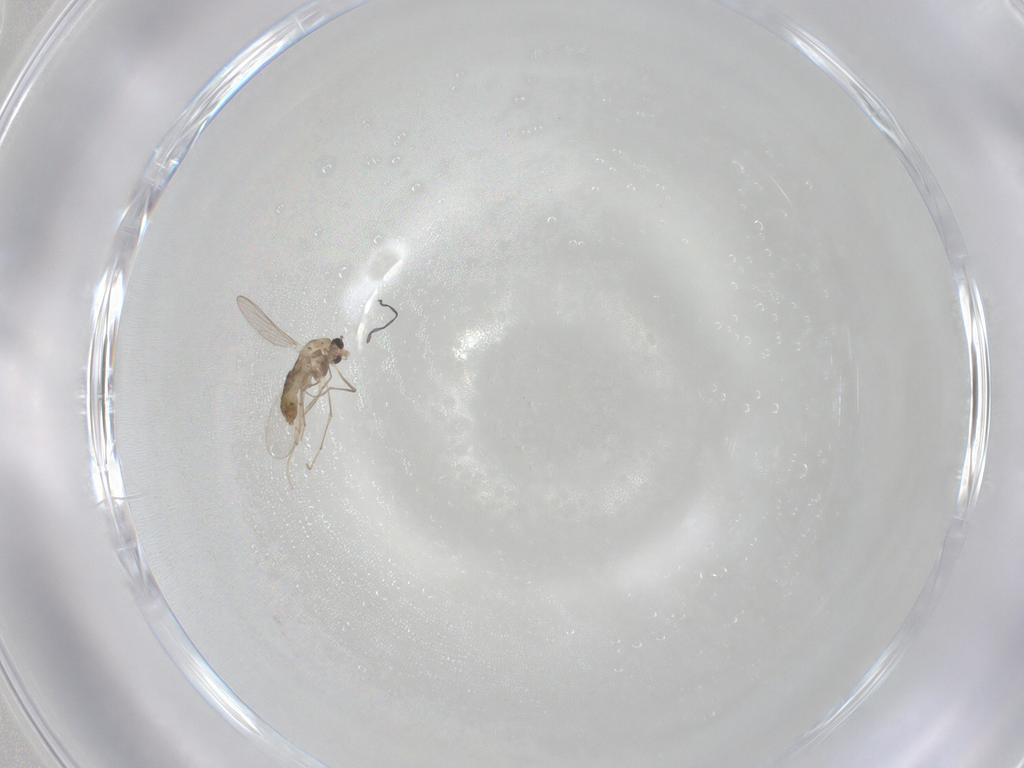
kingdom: Animalia
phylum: Arthropoda
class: Insecta
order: Diptera
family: Chironomidae
